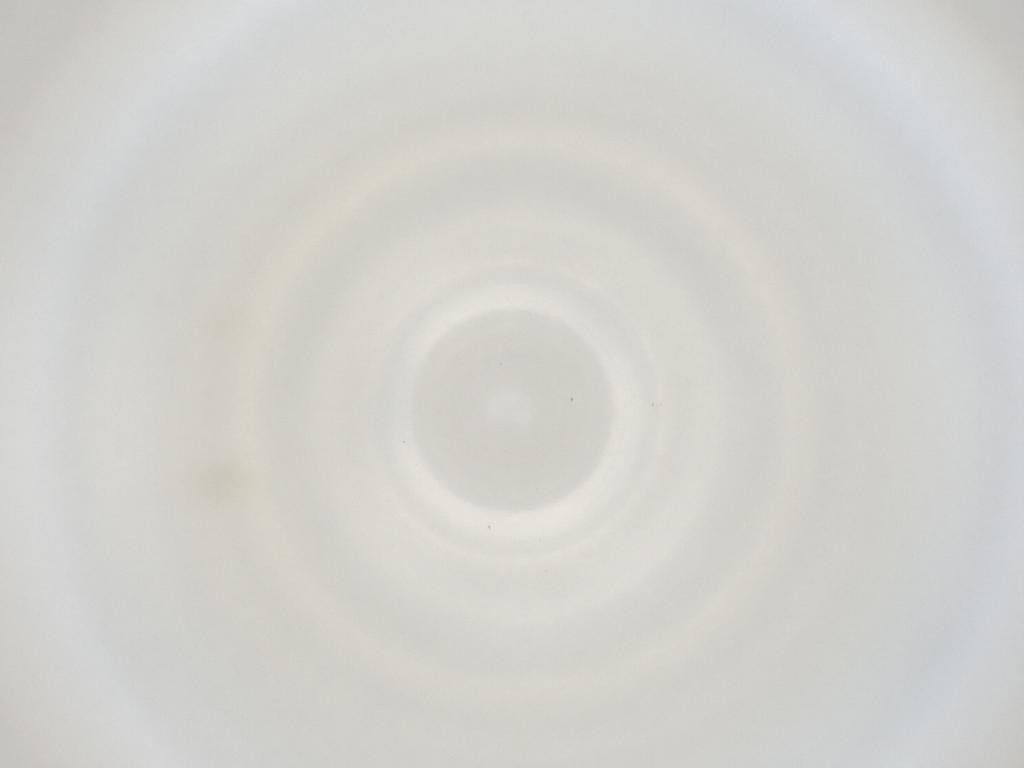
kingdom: Animalia
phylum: Arthropoda
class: Insecta
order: Diptera
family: Cecidomyiidae
